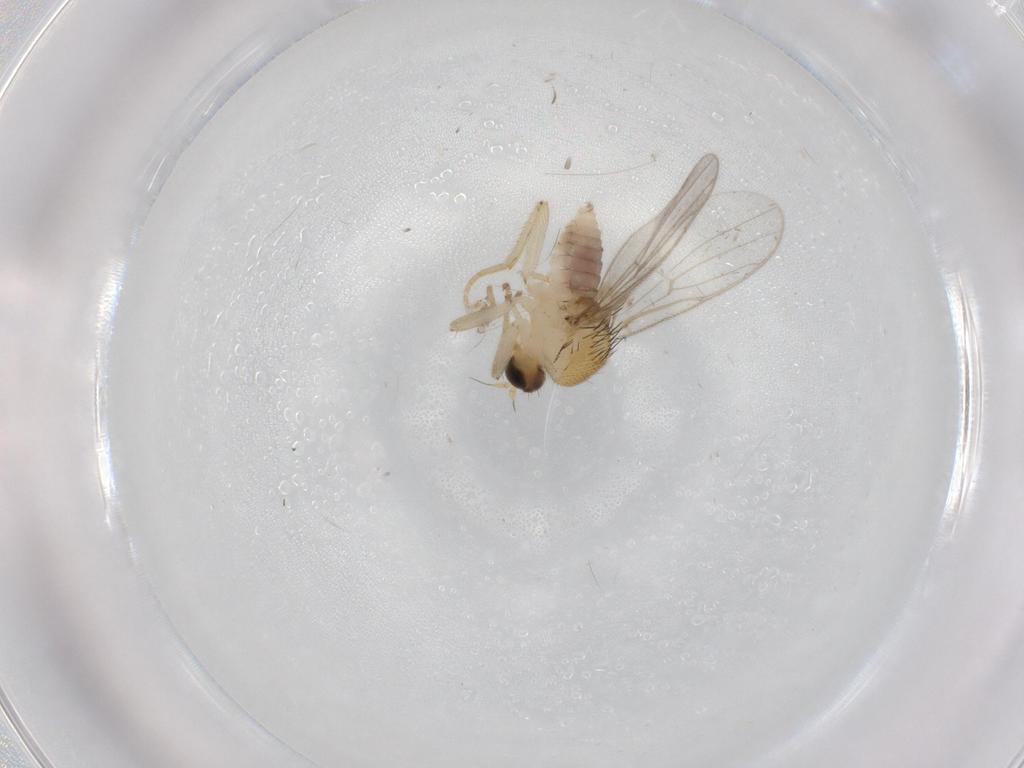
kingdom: Animalia
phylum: Arthropoda
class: Insecta
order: Diptera
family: Hybotidae
